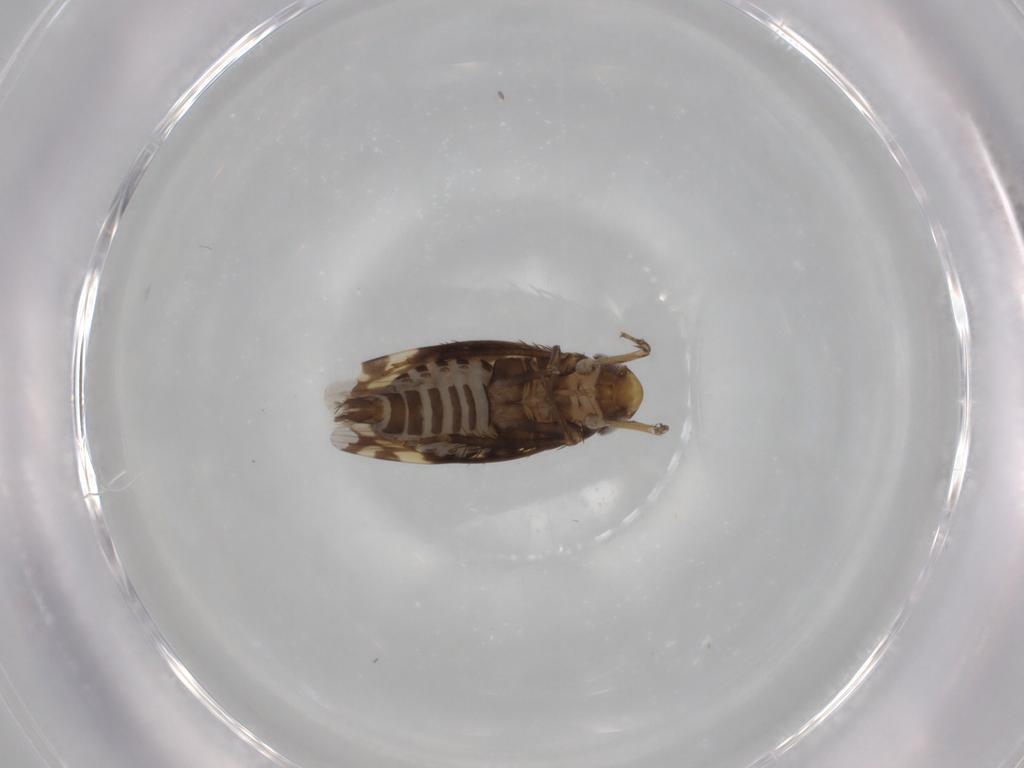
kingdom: Animalia
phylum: Arthropoda
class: Insecta
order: Hemiptera
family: Cicadellidae
